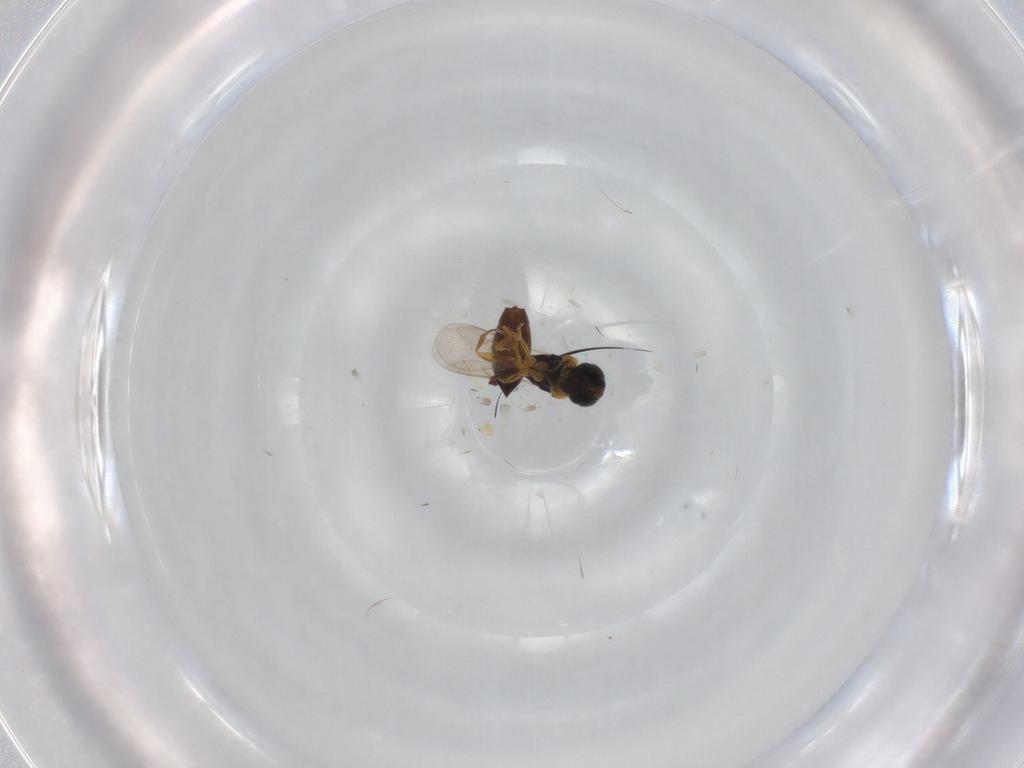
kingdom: Animalia
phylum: Arthropoda
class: Insecta
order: Hymenoptera
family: Scelionidae
